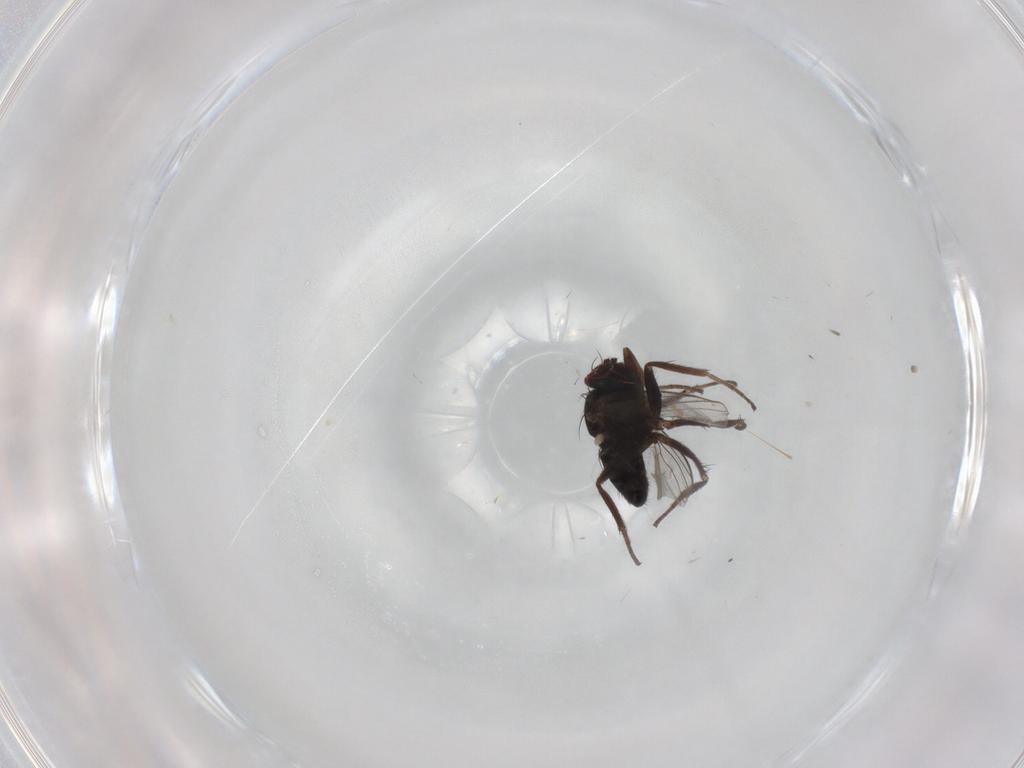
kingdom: Animalia
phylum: Arthropoda
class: Insecta
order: Diptera
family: Dolichopodidae
